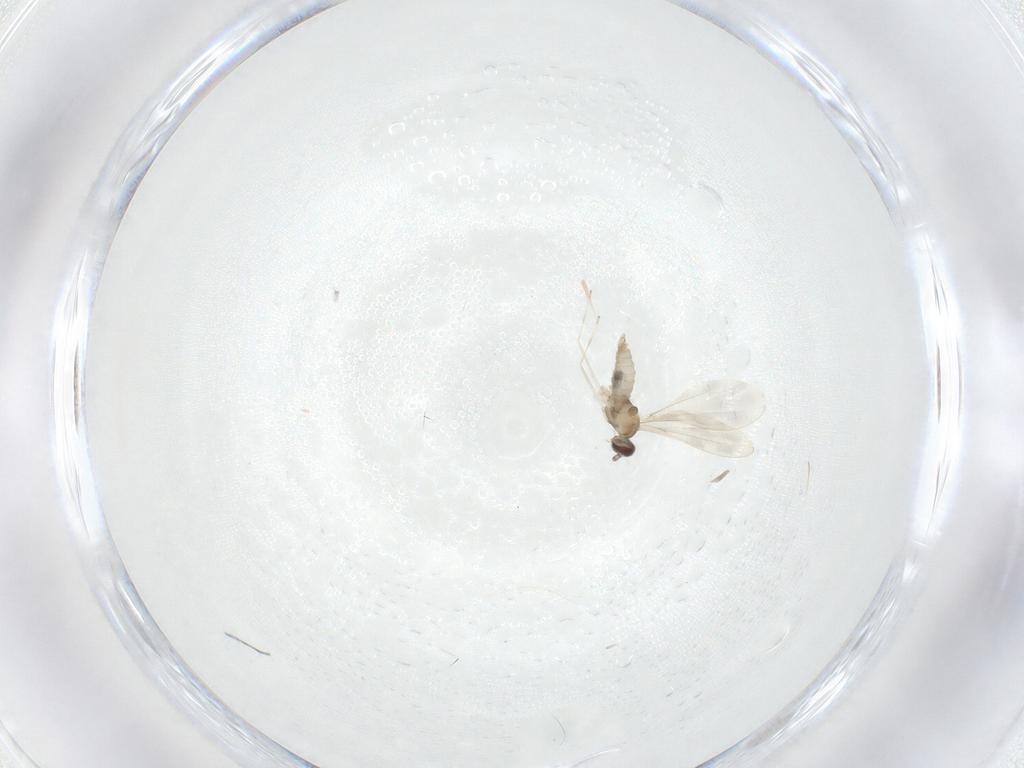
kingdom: Animalia
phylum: Arthropoda
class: Insecta
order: Diptera
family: Cecidomyiidae
